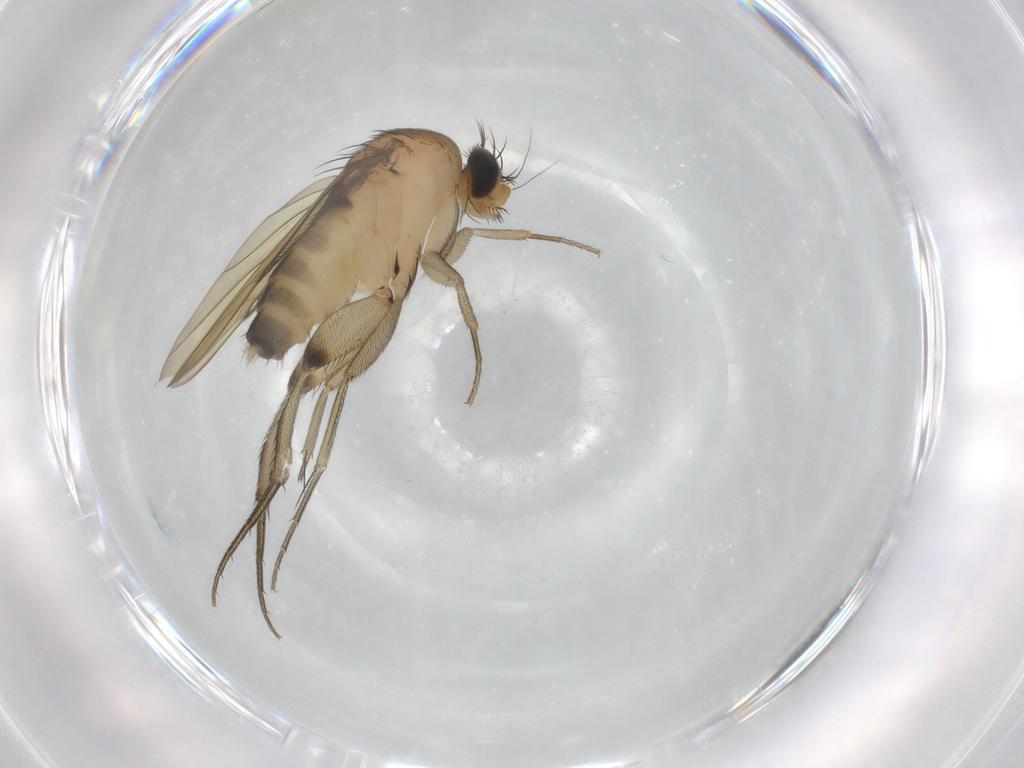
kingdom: Animalia
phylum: Arthropoda
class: Insecta
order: Diptera
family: Phoridae
